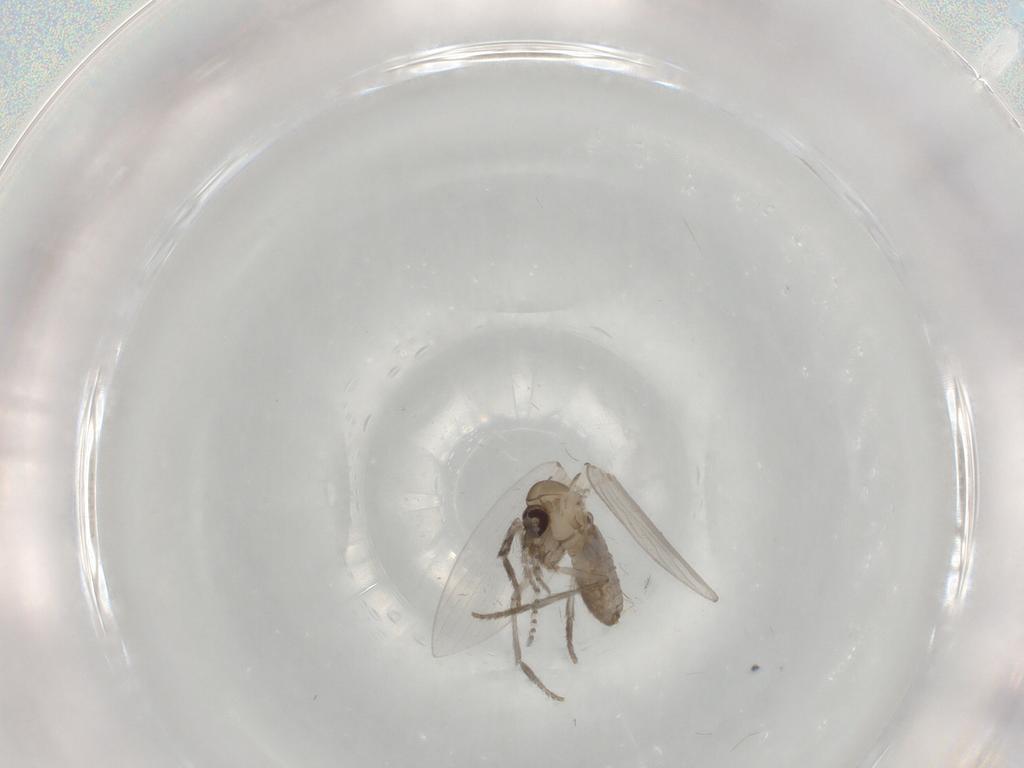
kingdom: Animalia
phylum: Arthropoda
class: Insecta
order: Diptera
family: Limoniidae
